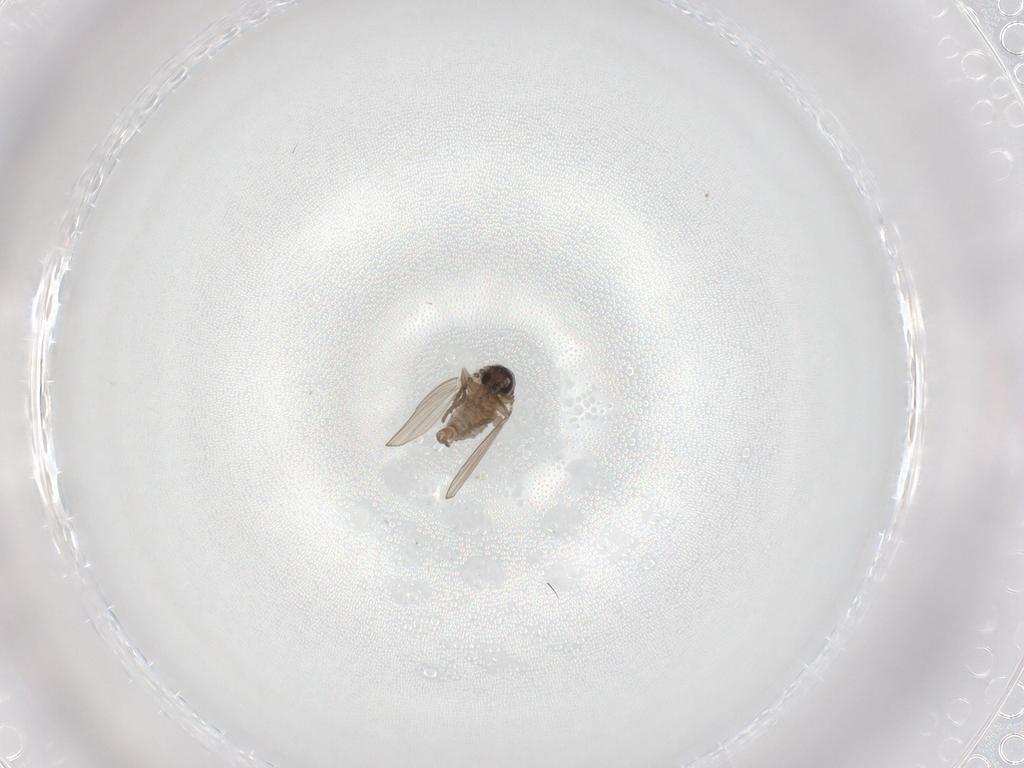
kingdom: Animalia
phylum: Arthropoda
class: Insecta
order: Diptera
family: Psychodidae
